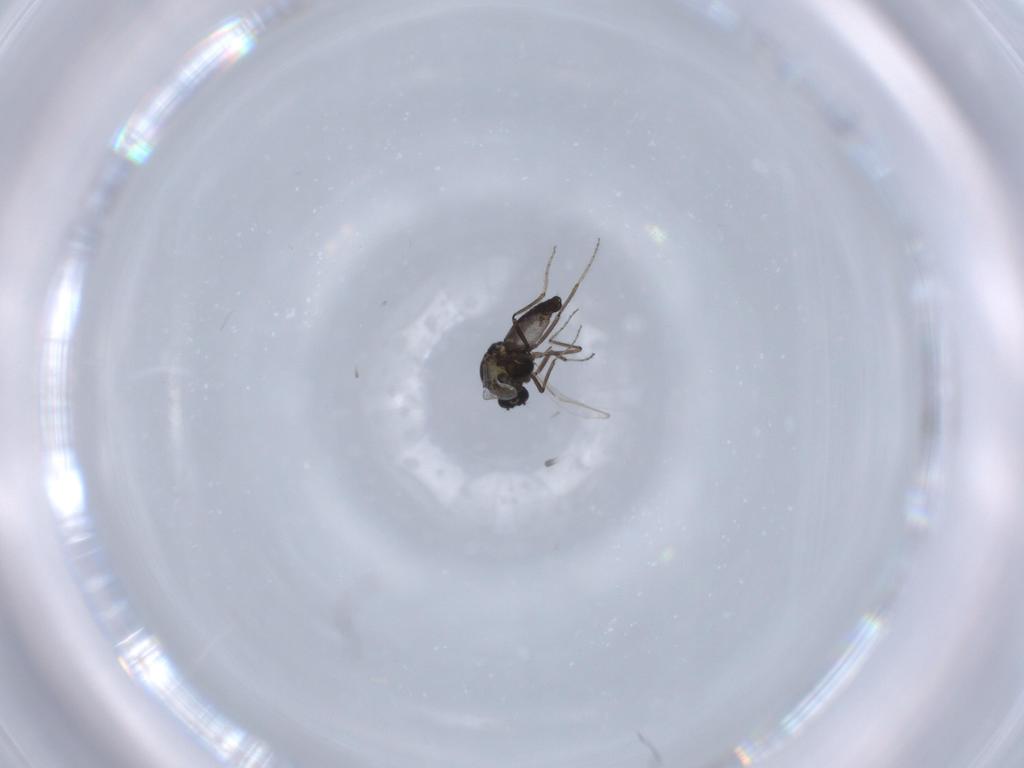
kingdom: Animalia
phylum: Arthropoda
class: Insecta
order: Diptera
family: Ceratopogonidae
